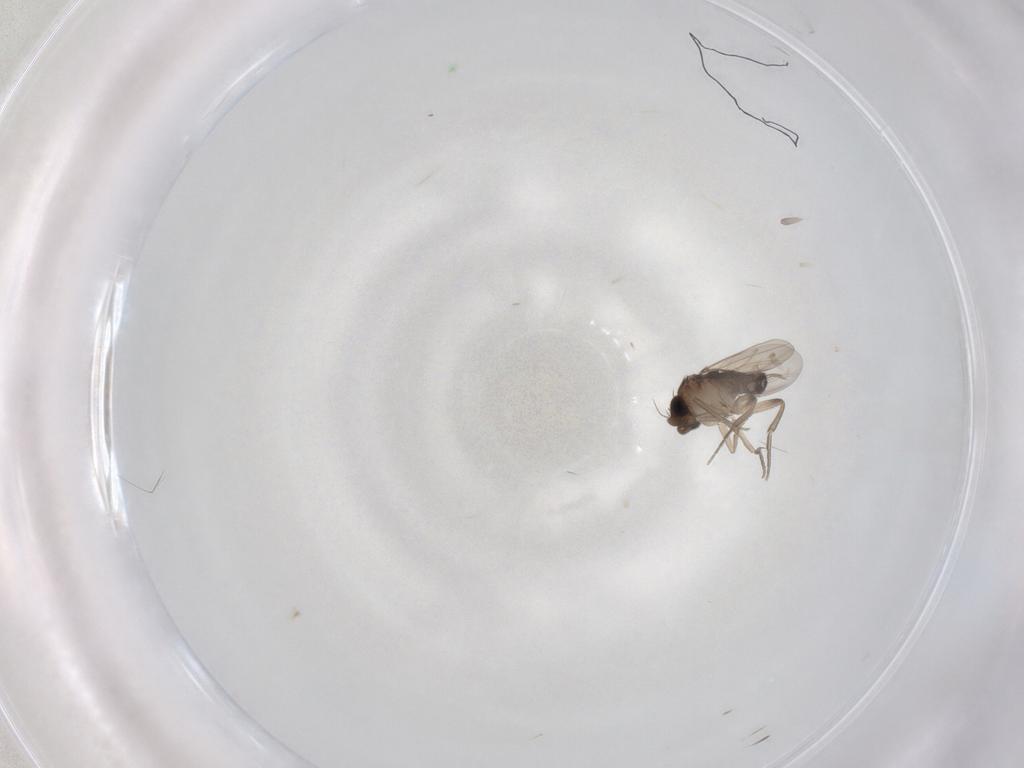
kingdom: Animalia
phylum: Arthropoda
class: Insecta
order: Diptera
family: Phoridae
